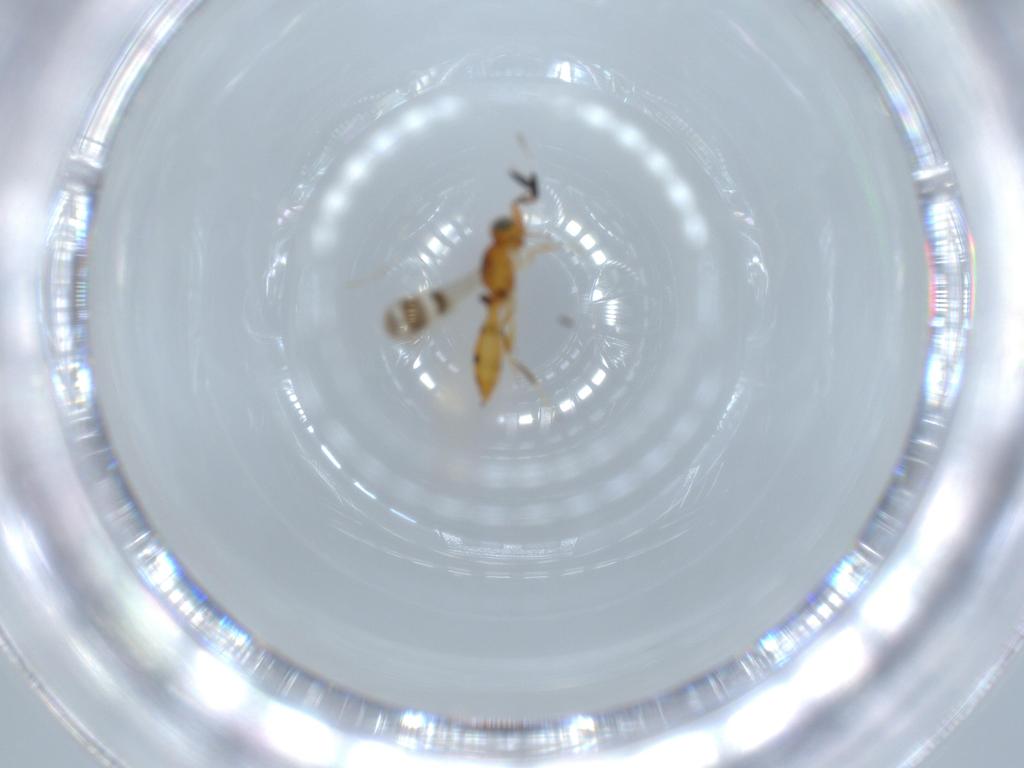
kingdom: Animalia
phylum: Arthropoda
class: Insecta
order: Hymenoptera
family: Scelionidae
